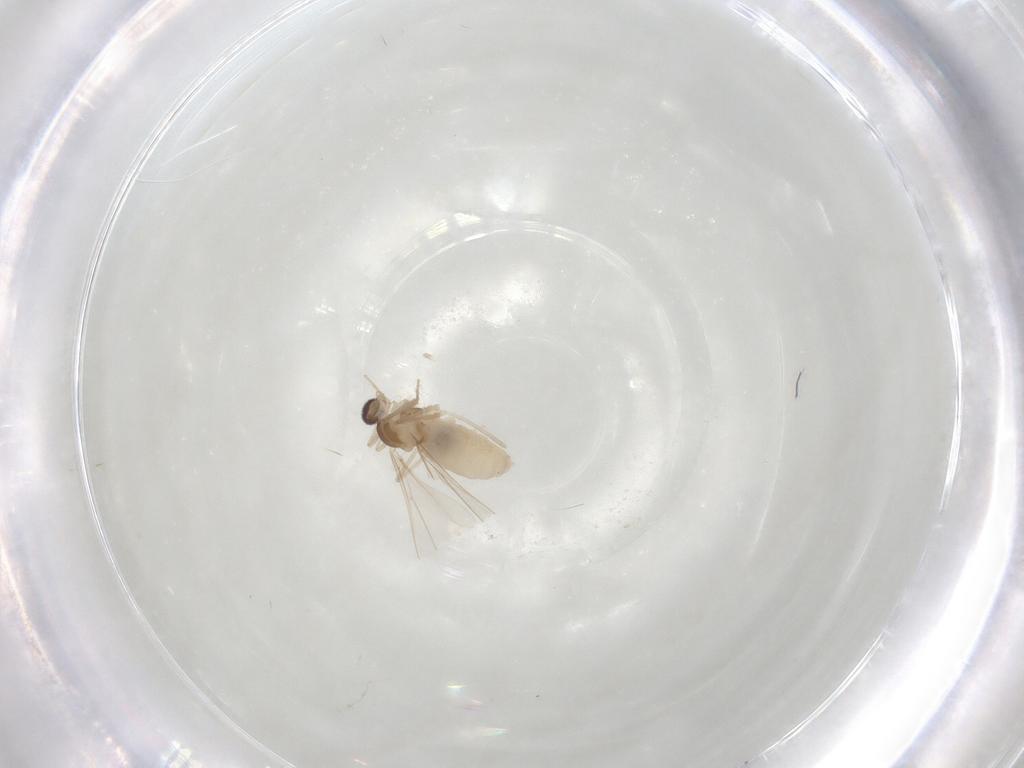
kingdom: Animalia
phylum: Arthropoda
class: Insecta
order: Diptera
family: Cecidomyiidae
